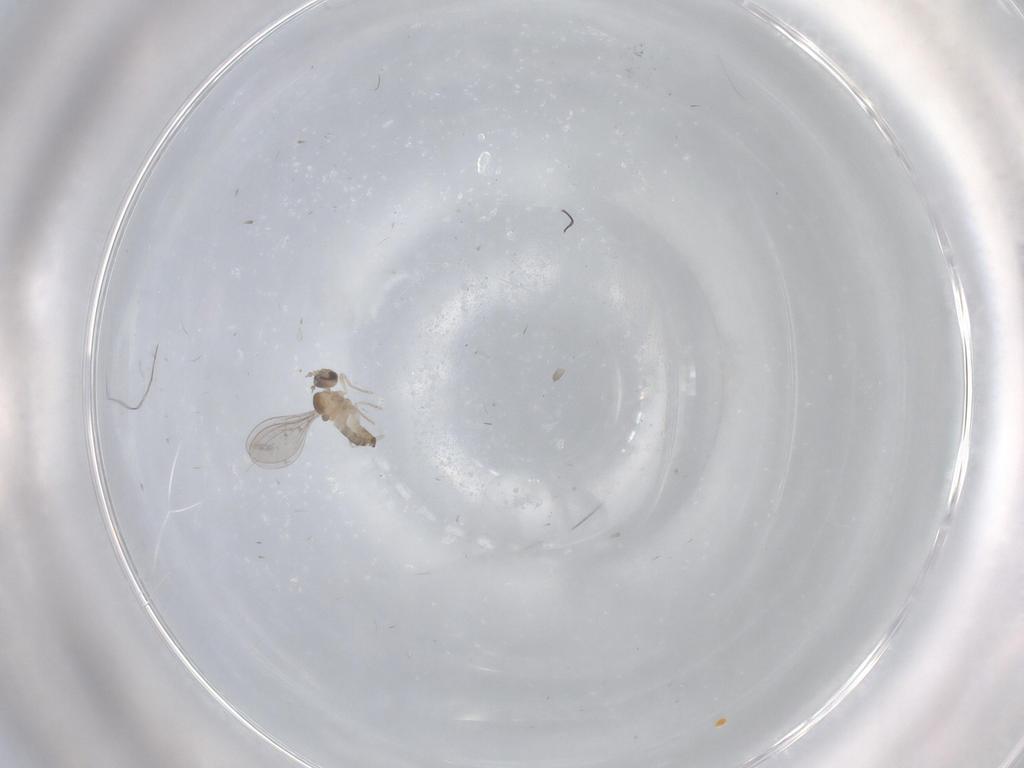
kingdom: Animalia
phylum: Arthropoda
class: Insecta
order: Diptera
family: Cecidomyiidae
